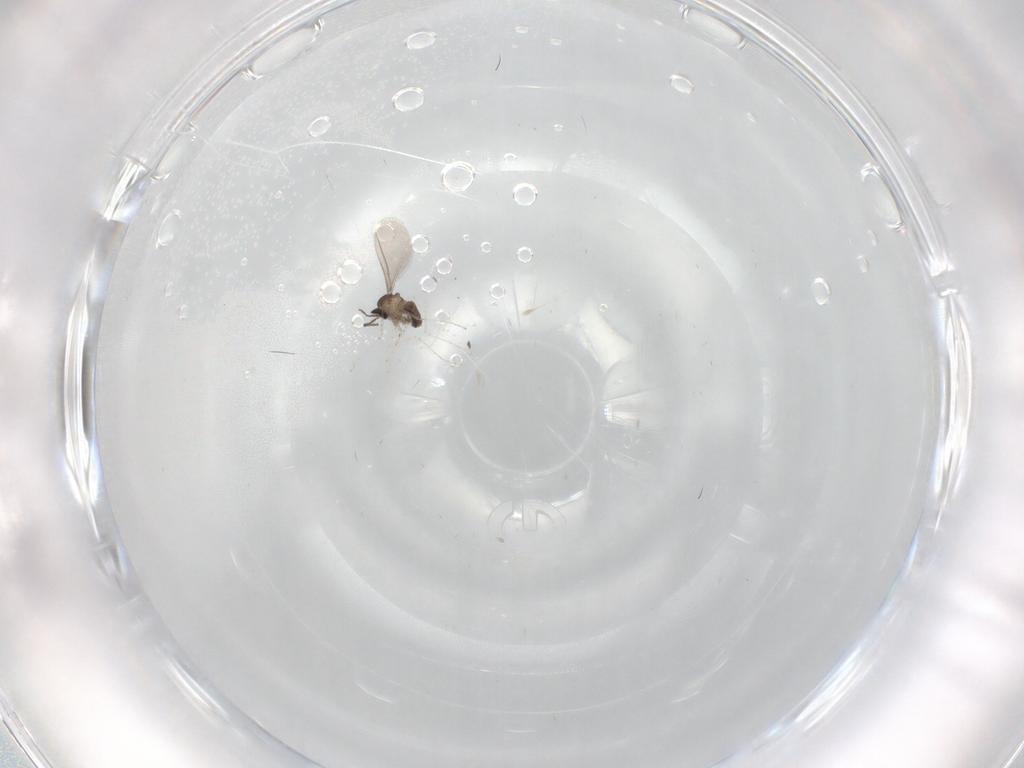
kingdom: Animalia
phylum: Arthropoda
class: Insecta
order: Diptera
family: Cecidomyiidae
